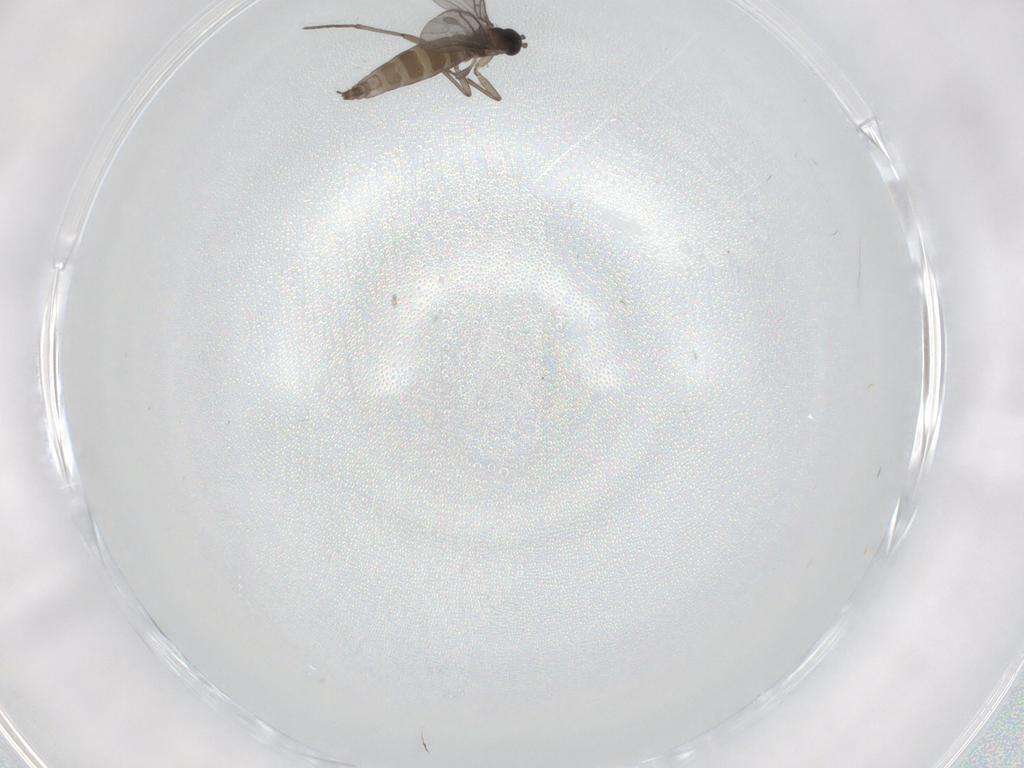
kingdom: Animalia
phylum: Arthropoda
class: Insecta
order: Diptera
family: Sciaridae
